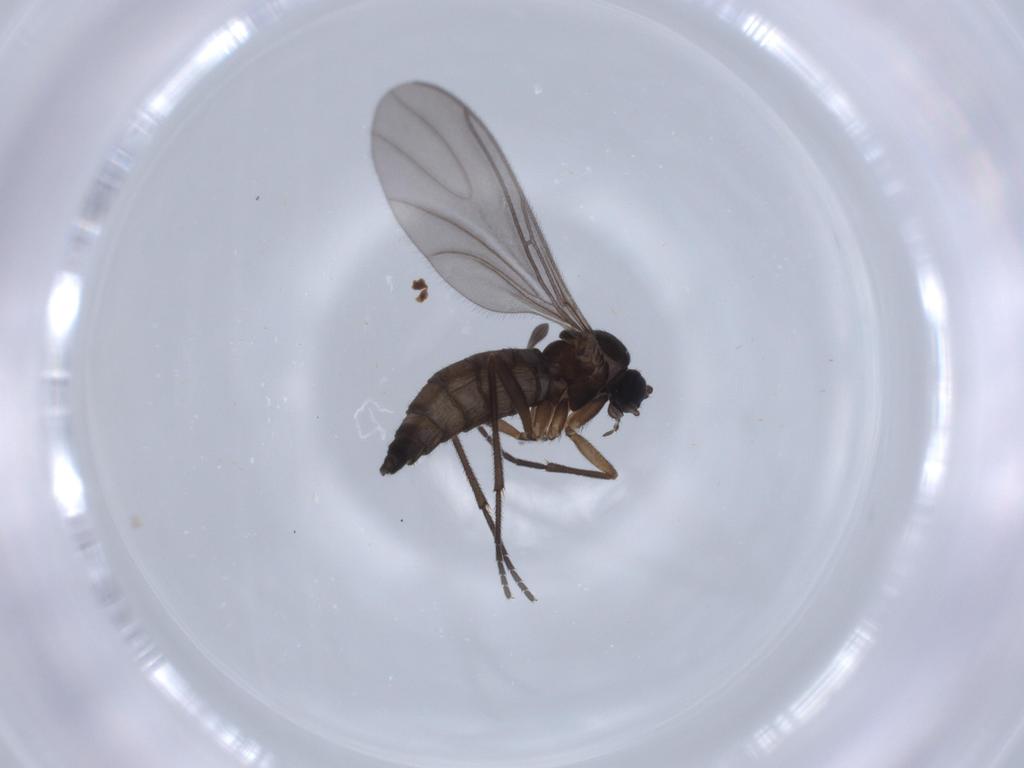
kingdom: Animalia
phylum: Arthropoda
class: Insecta
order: Diptera
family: Sciaridae
